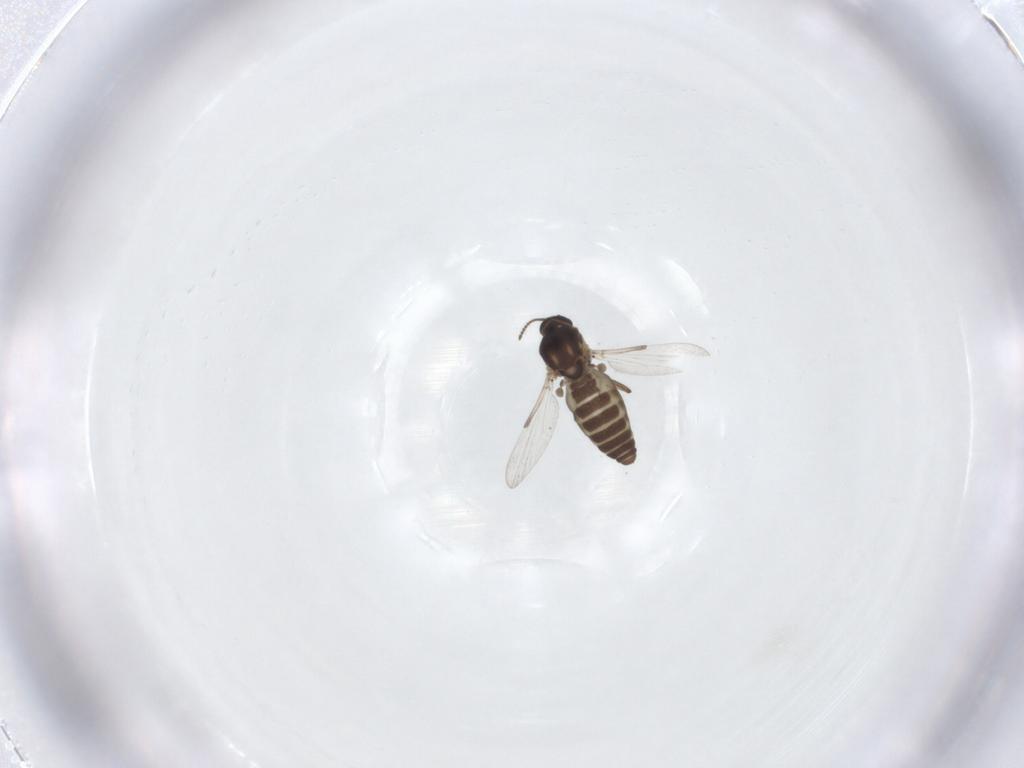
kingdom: Animalia
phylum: Arthropoda
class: Insecta
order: Diptera
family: Ceratopogonidae
